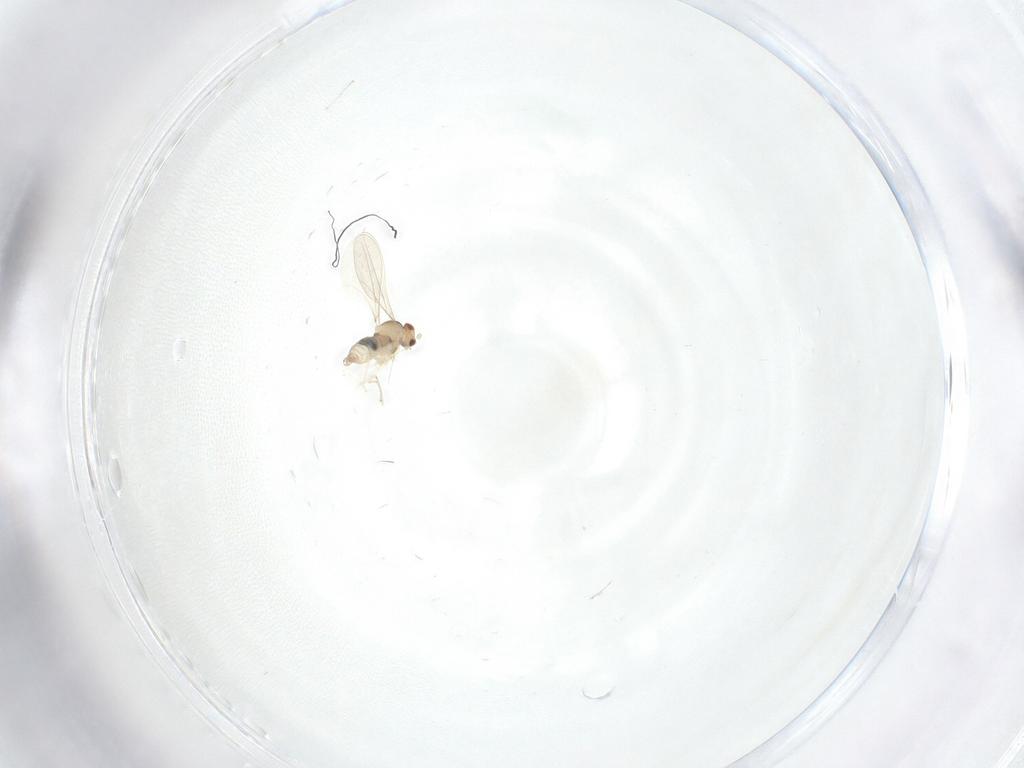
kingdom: Animalia
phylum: Arthropoda
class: Insecta
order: Diptera
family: Cecidomyiidae
